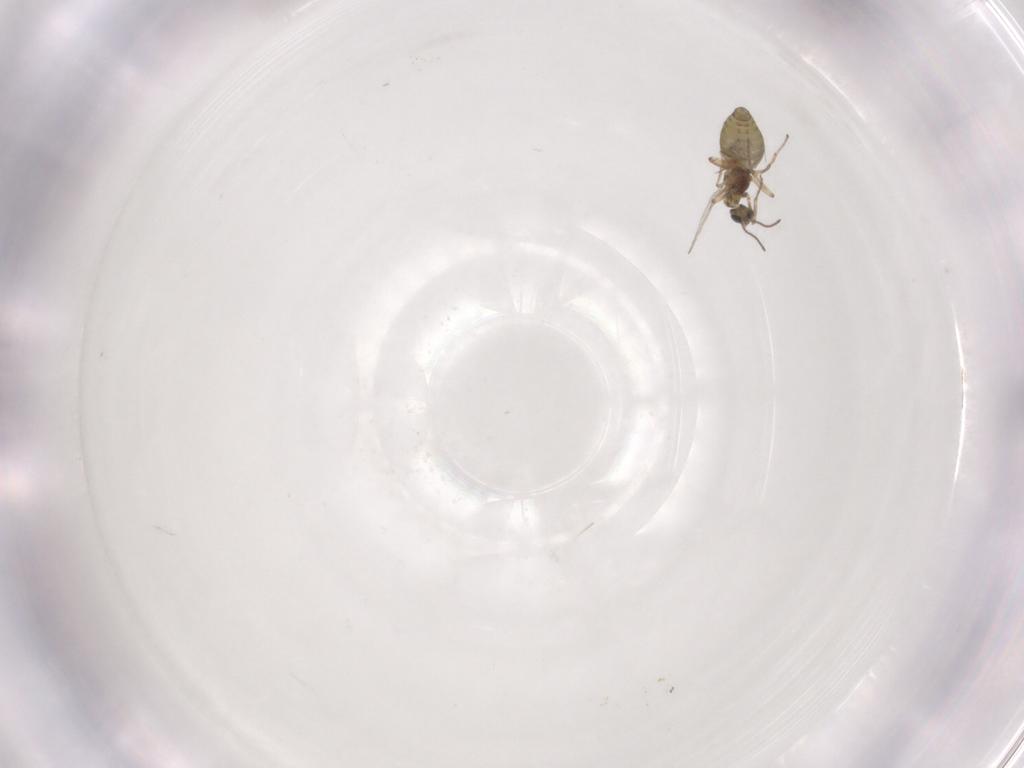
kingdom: Animalia
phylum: Arthropoda
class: Insecta
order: Diptera
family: Ceratopogonidae
